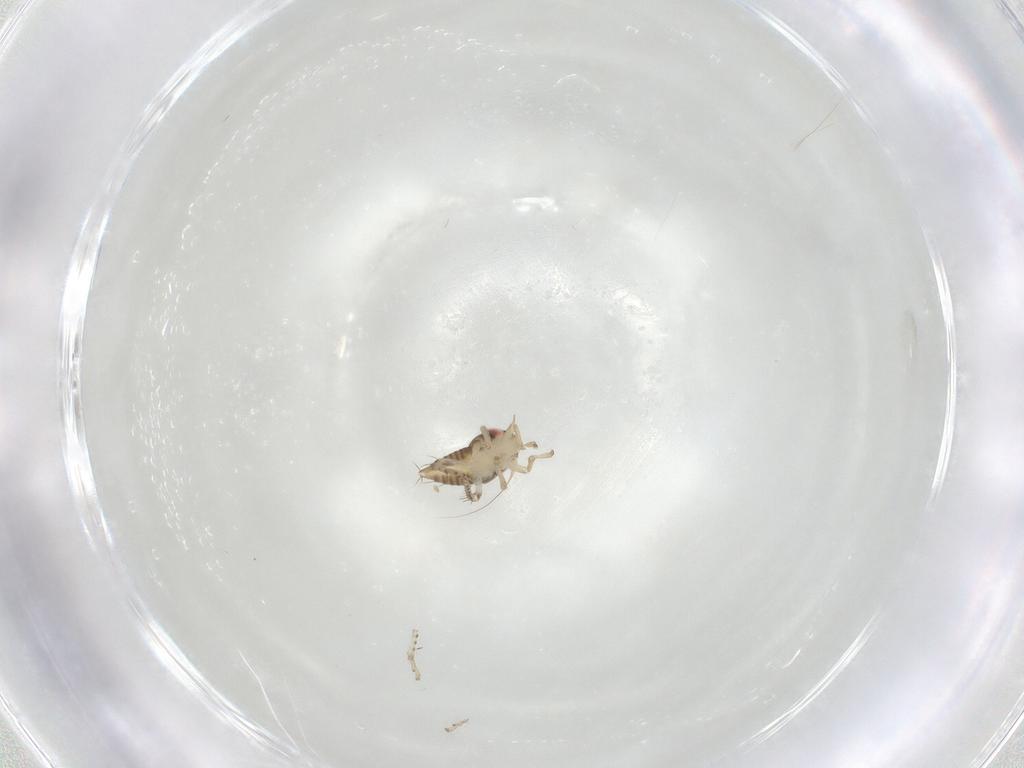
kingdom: Animalia
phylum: Arthropoda
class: Insecta
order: Hemiptera
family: Cicadellidae
